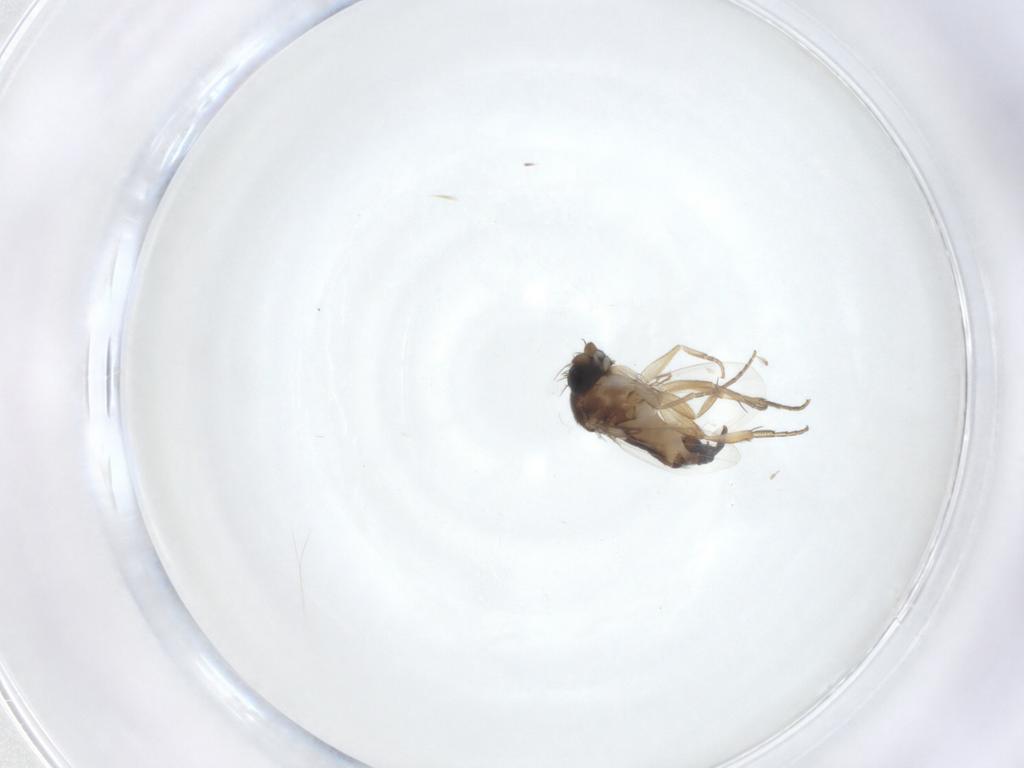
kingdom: Animalia
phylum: Arthropoda
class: Insecta
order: Diptera
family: Phoridae
